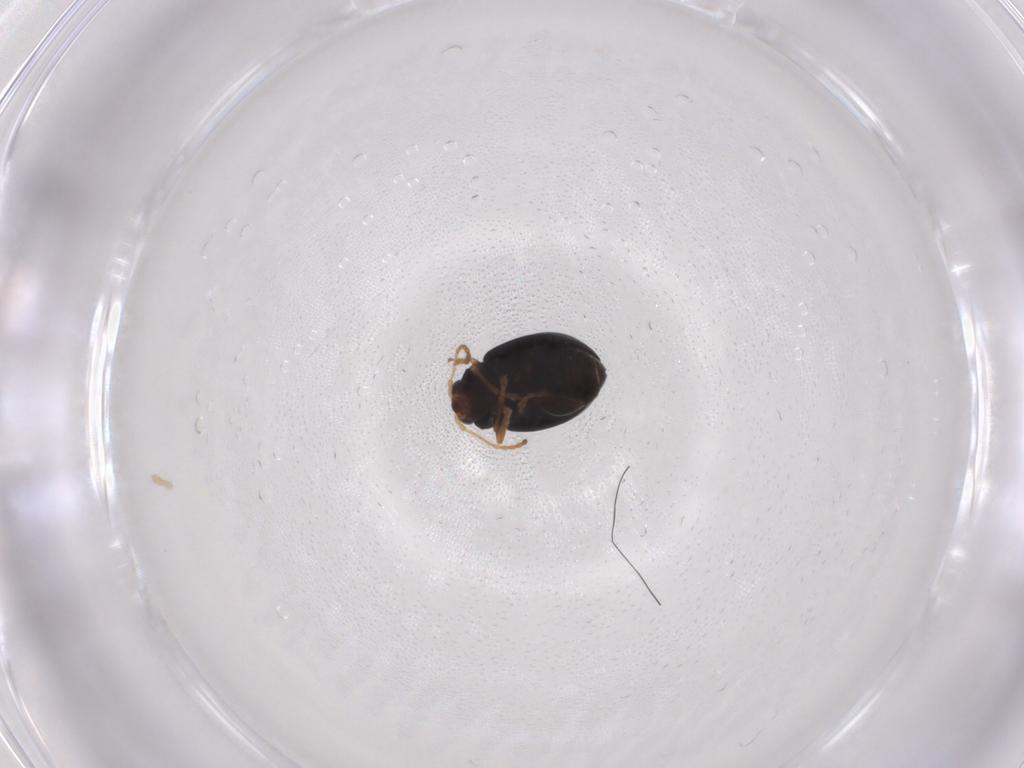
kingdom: Animalia
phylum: Arthropoda
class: Insecta
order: Coleoptera
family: Chrysomelidae
